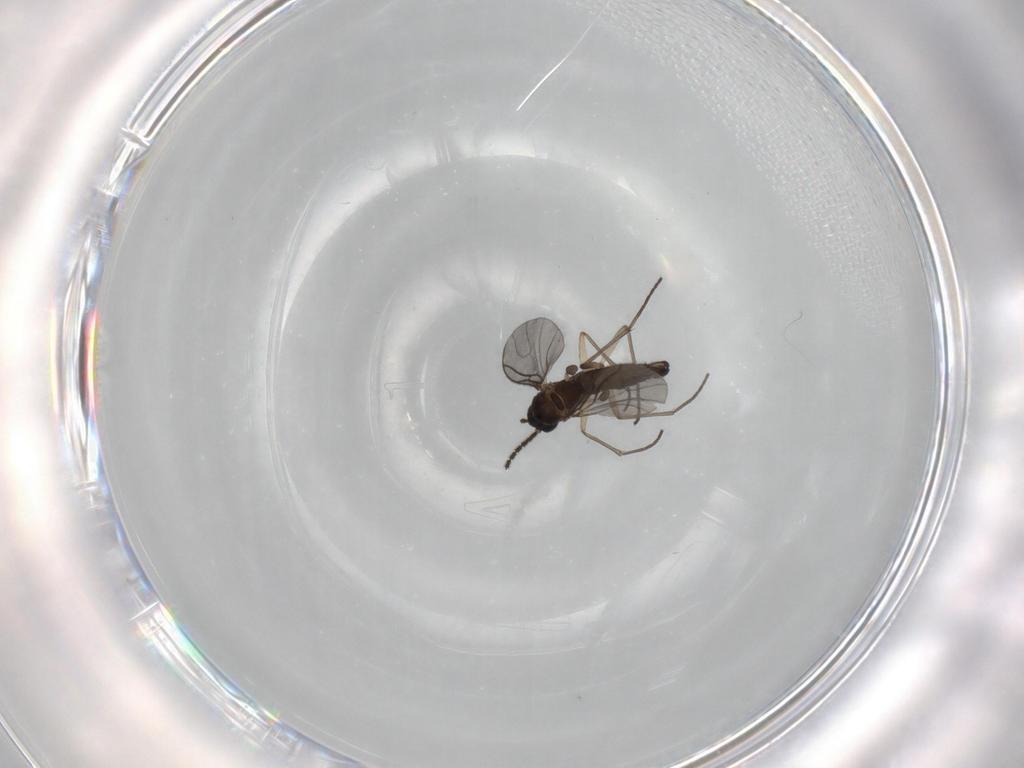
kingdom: Animalia
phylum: Arthropoda
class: Insecta
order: Diptera
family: Sciaridae
